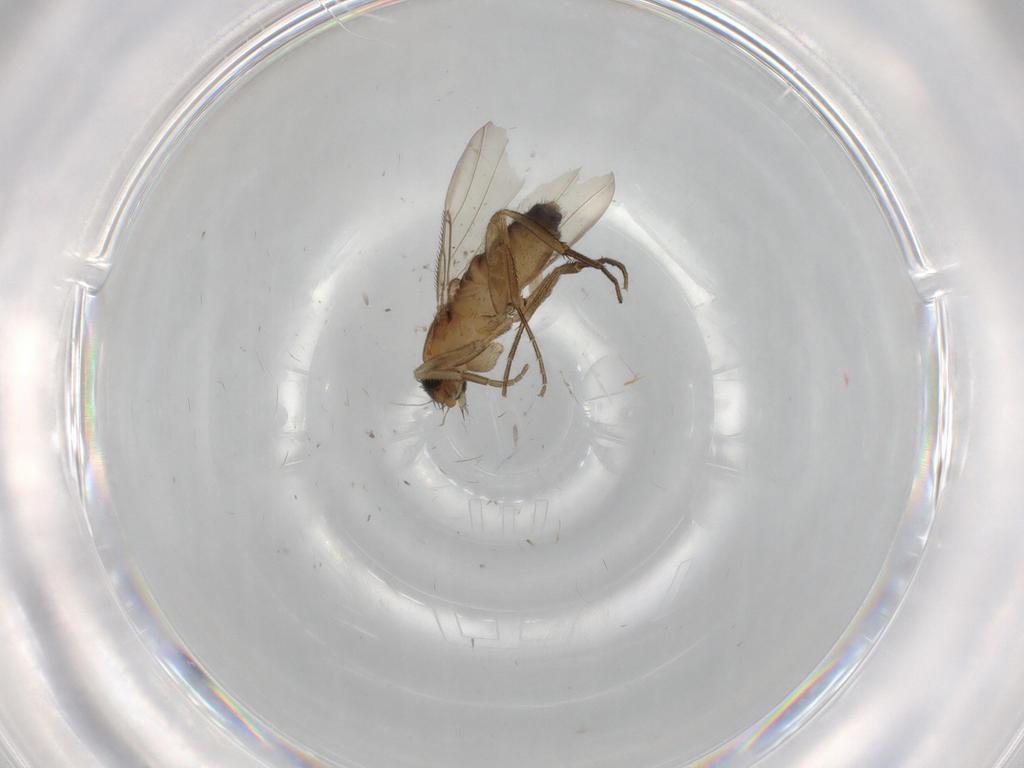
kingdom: Animalia
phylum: Arthropoda
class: Insecta
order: Diptera
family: Phoridae
